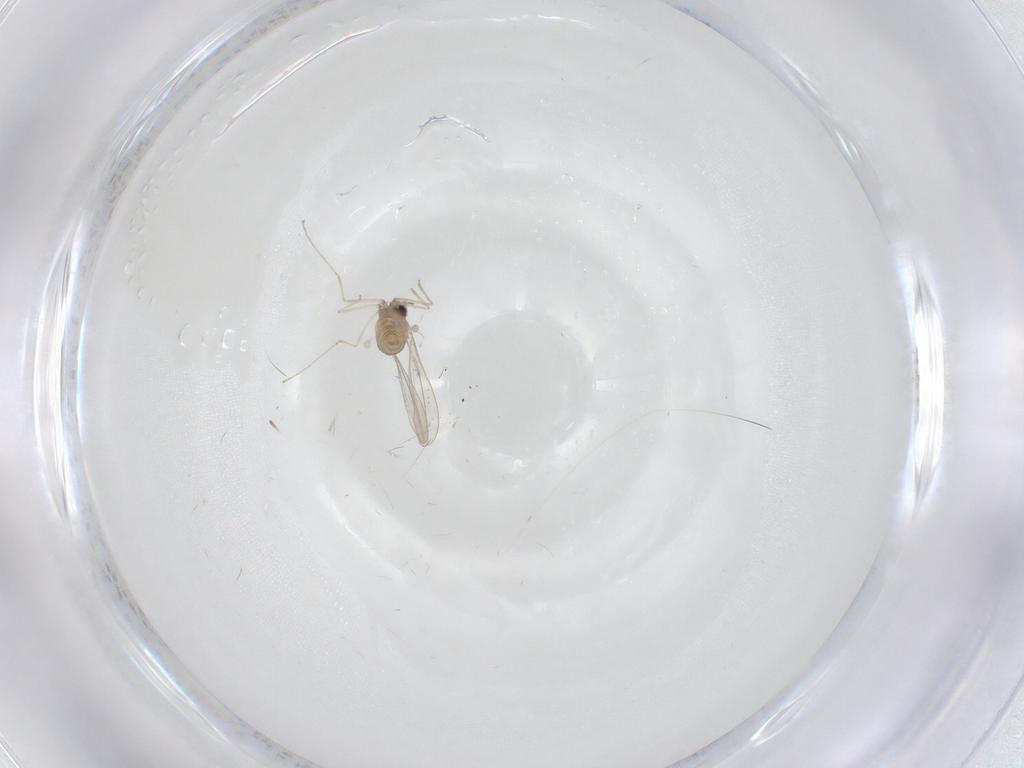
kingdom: Animalia
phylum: Arthropoda
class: Insecta
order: Diptera
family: Cecidomyiidae
